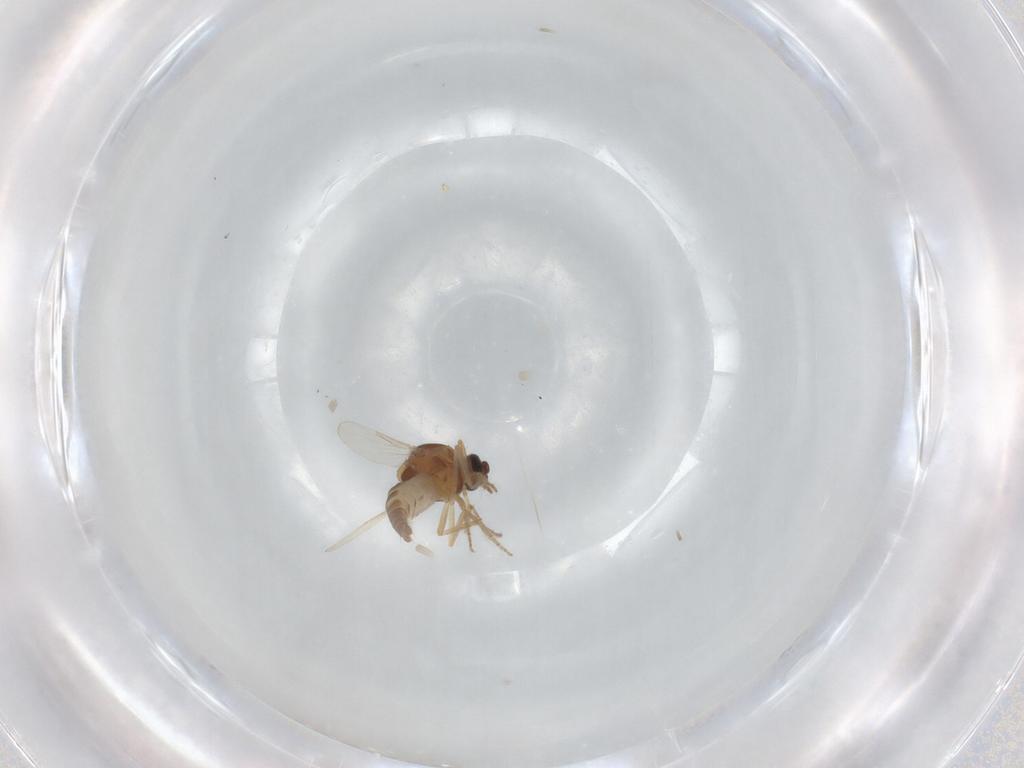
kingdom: Animalia
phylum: Arthropoda
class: Insecta
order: Diptera
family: Ceratopogonidae
